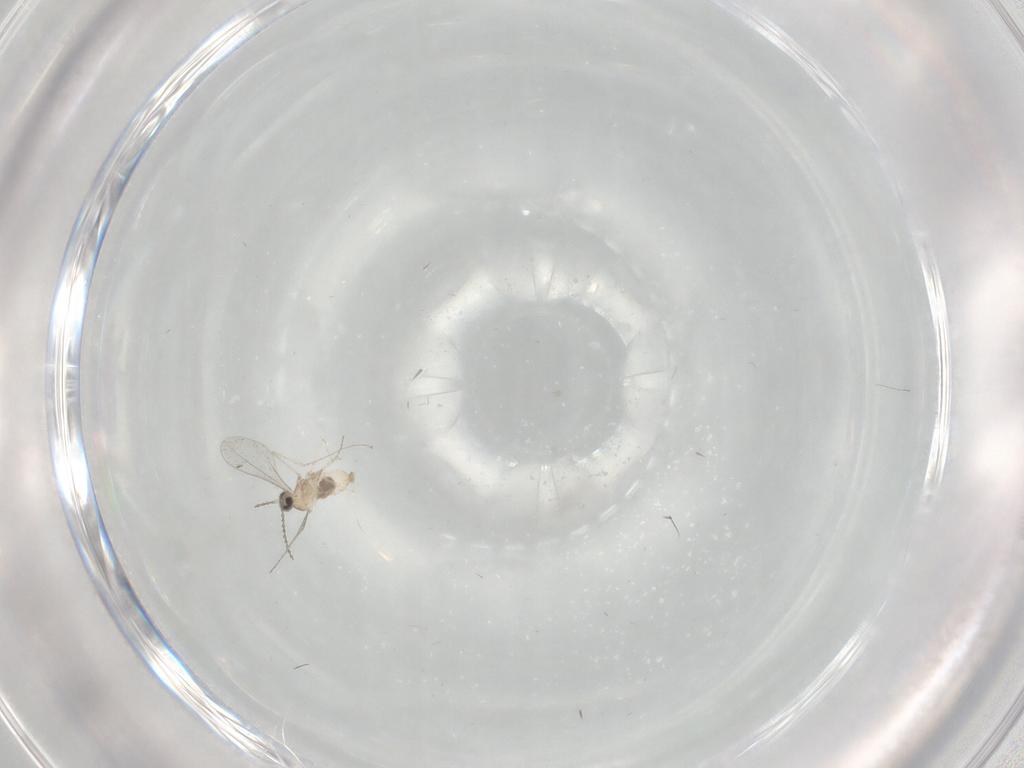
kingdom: Animalia
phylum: Arthropoda
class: Insecta
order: Diptera
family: Cecidomyiidae
